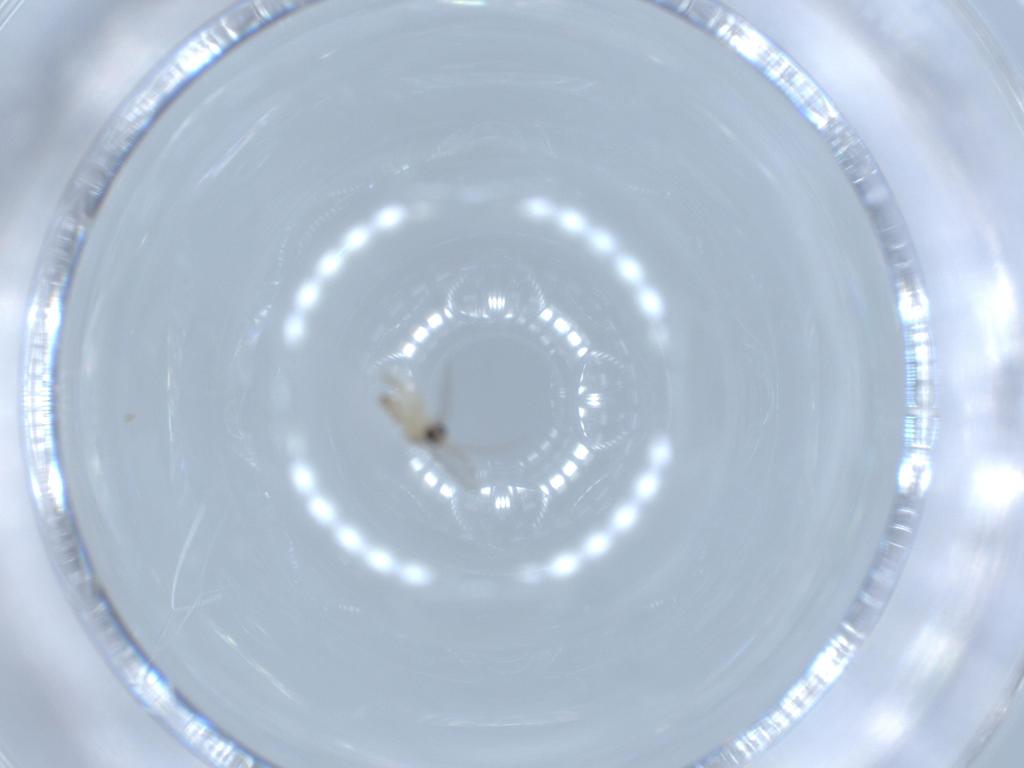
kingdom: Animalia
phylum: Arthropoda
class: Insecta
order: Diptera
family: Cecidomyiidae
